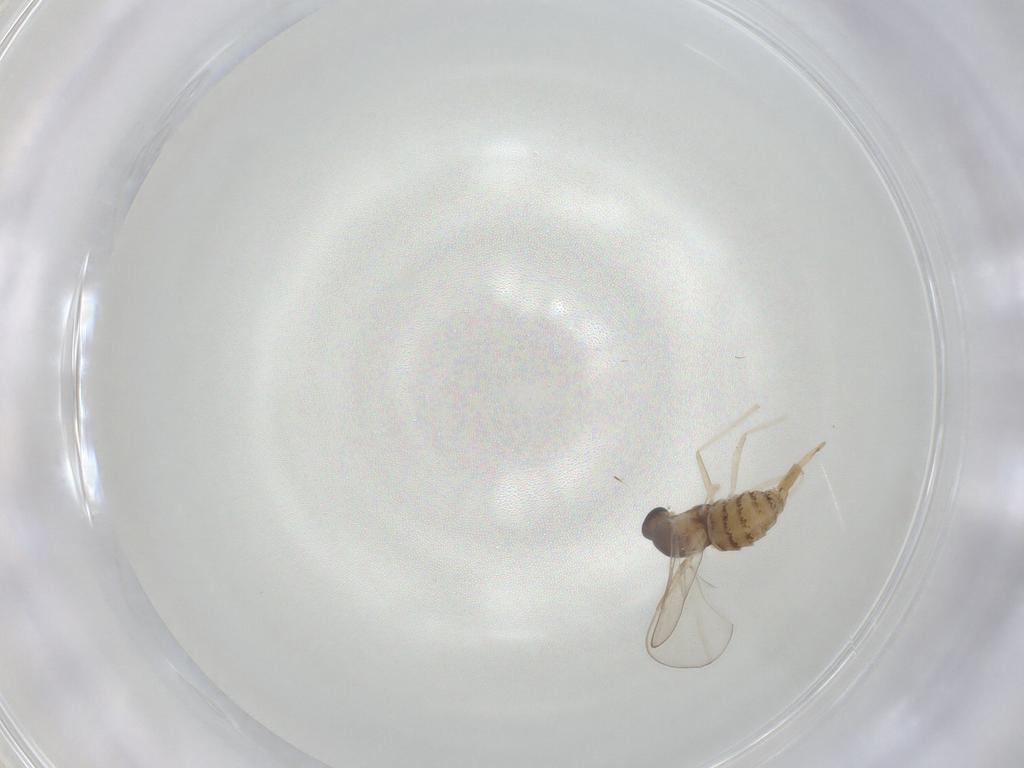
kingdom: Animalia
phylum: Arthropoda
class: Insecta
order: Diptera
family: Cecidomyiidae
